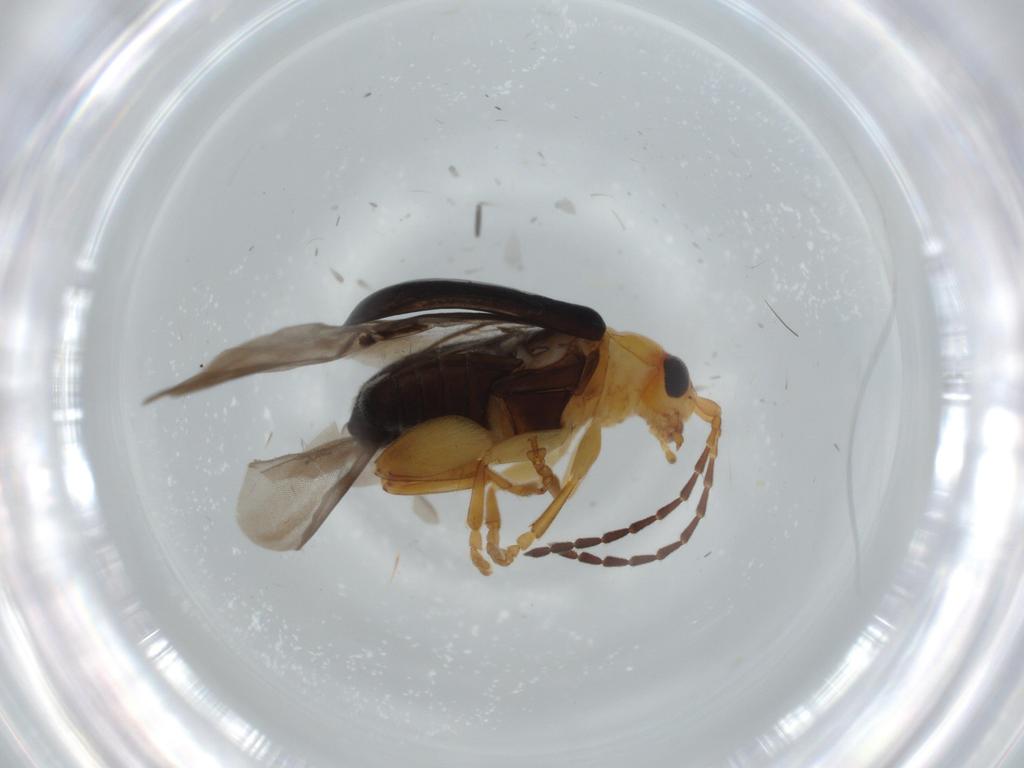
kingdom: Animalia
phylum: Arthropoda
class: Insecta
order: Coleoptera
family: Chrysomelidae
